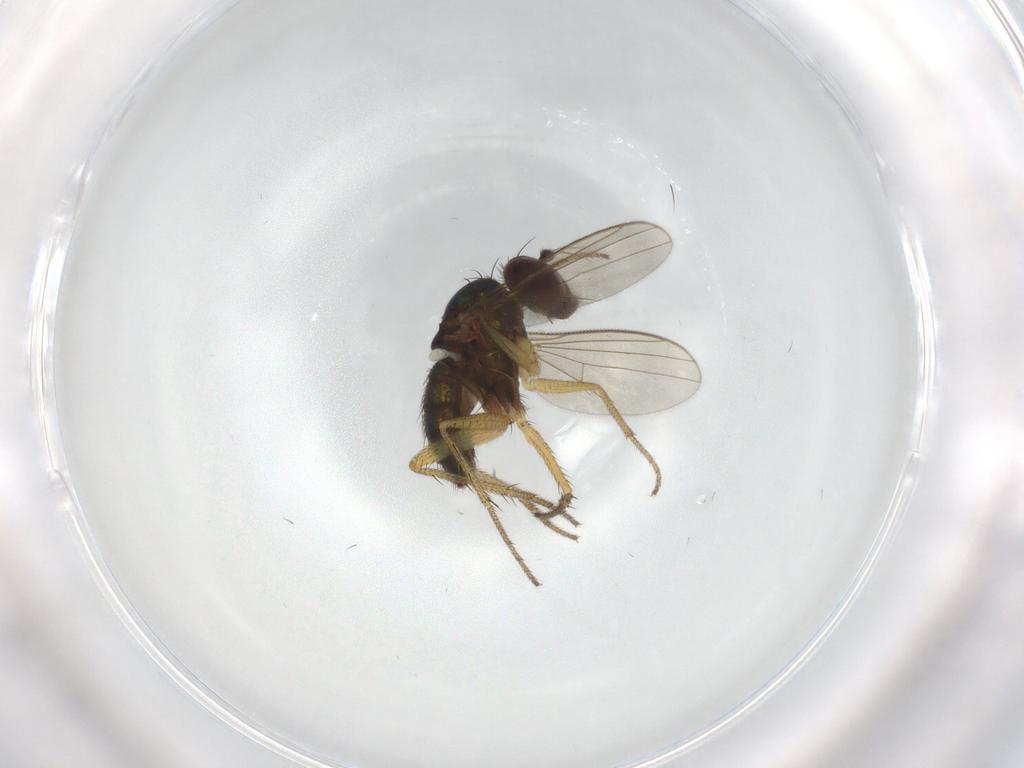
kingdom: Animalia
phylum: Arthropoda
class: Insecta
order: Diptera
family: Dolichopodidae
